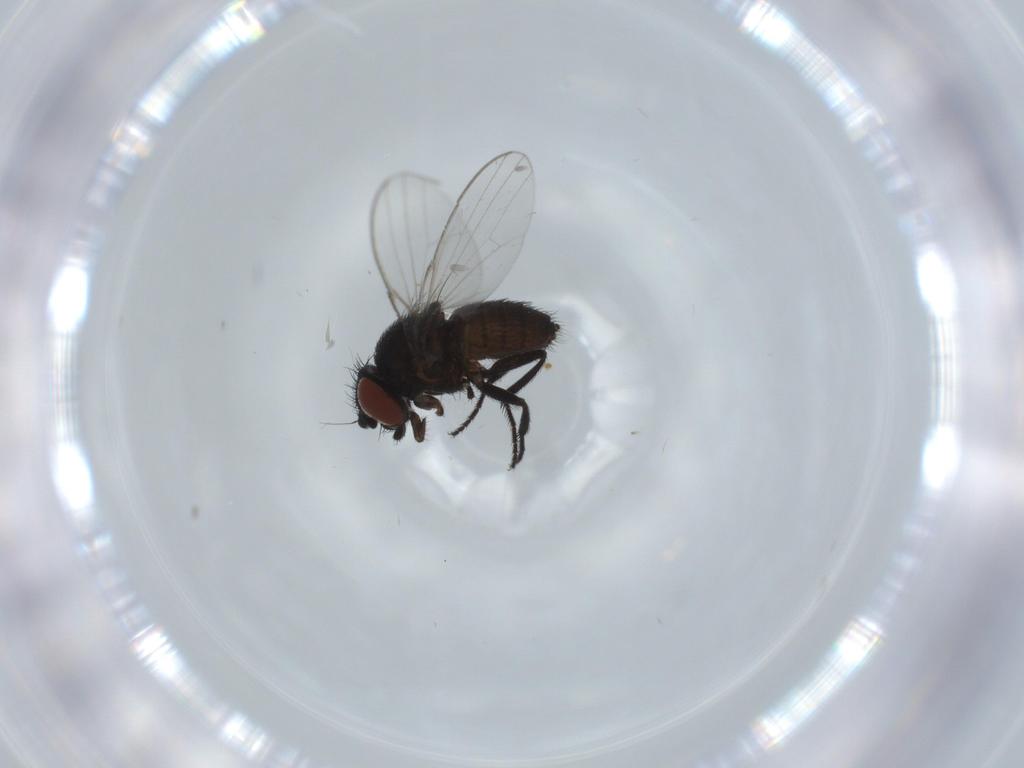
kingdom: Animalia
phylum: Arthropoda
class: Insecta
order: Diptera
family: Milichiidae
